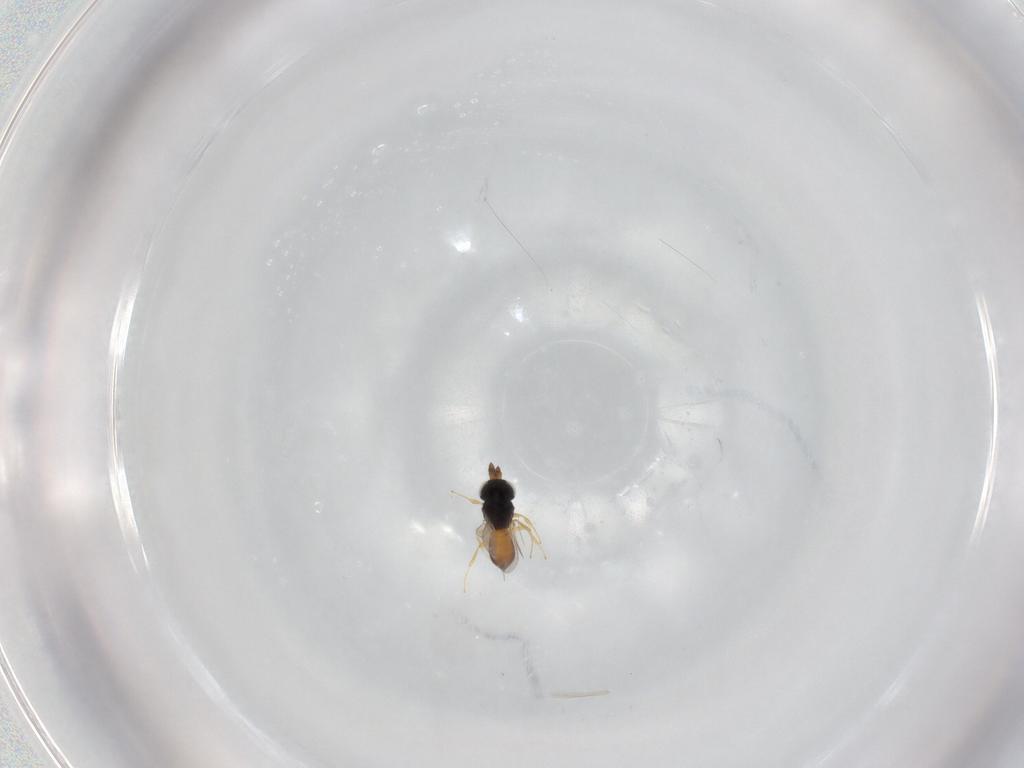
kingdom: Animalia
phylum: Arthropoda
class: Insecta
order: Hymenoptera
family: Scelionidae
